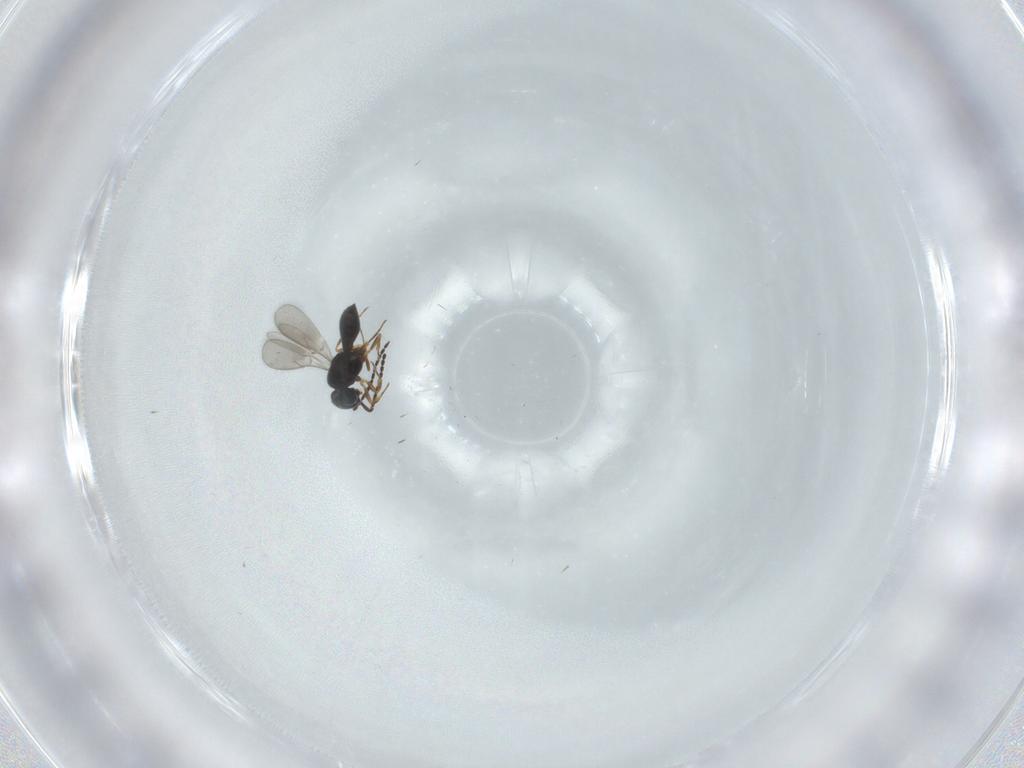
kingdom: Animalia
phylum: Arthropoda
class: Insecta
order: Hymenoptera
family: Scelionidae
